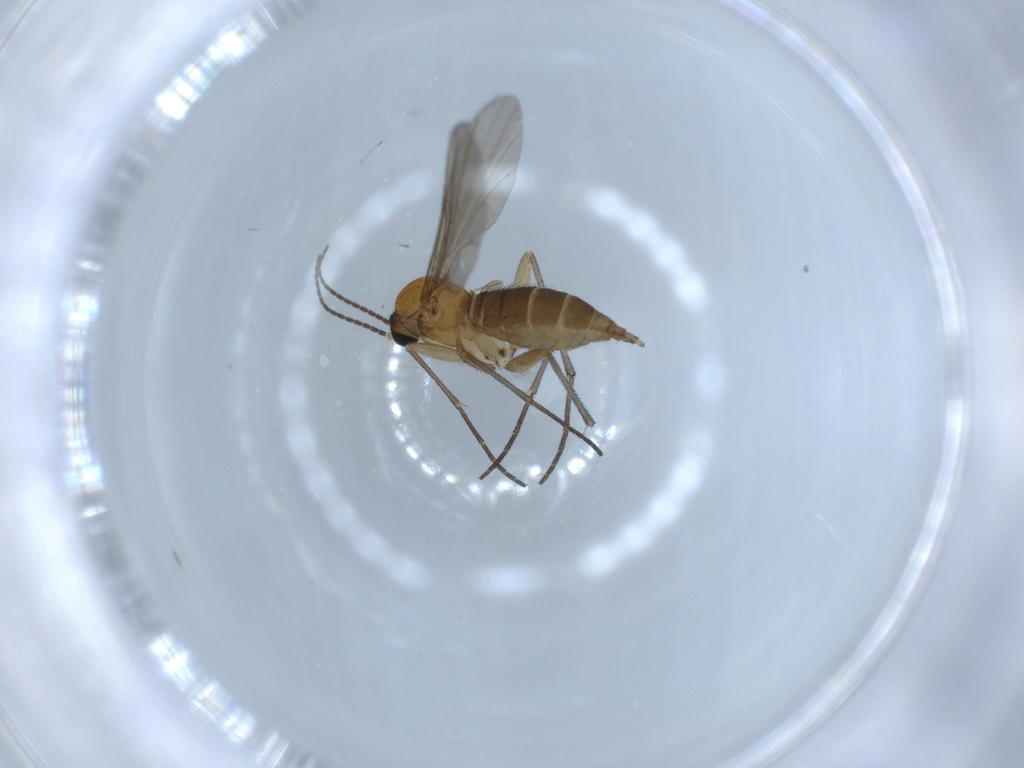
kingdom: Animalia
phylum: Arthropoda
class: Insecta
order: Diptera
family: Sciaridae
